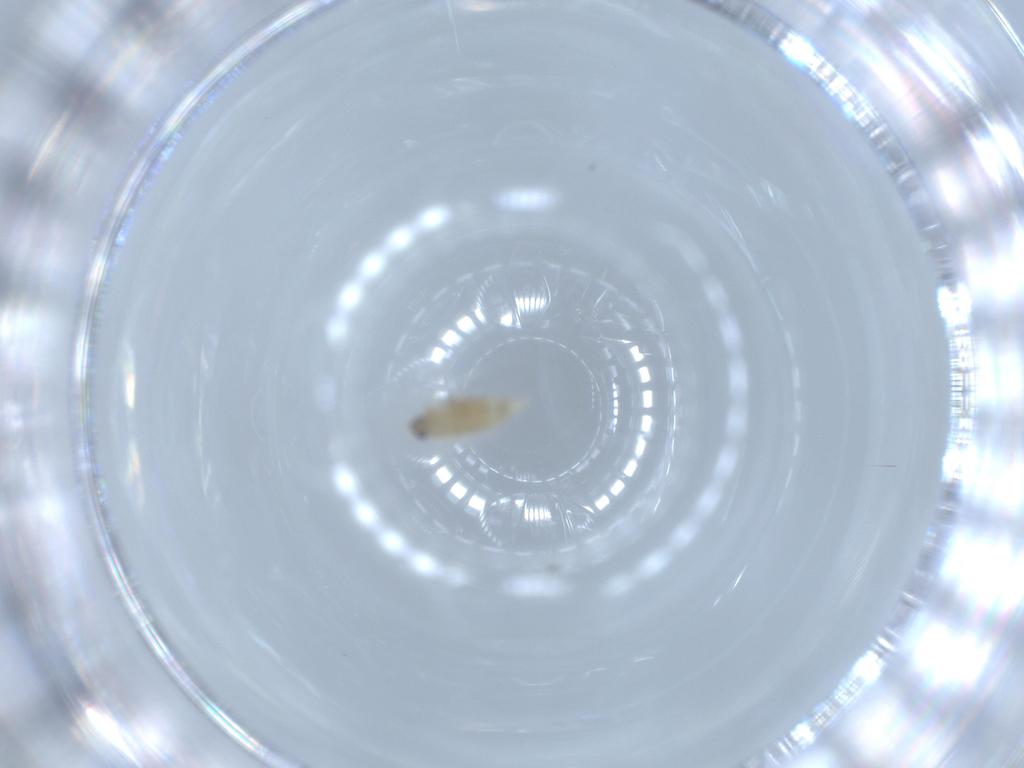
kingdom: Animalia
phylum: Arthropoda
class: Insecta
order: Diptera
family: Cecidomyiidae
